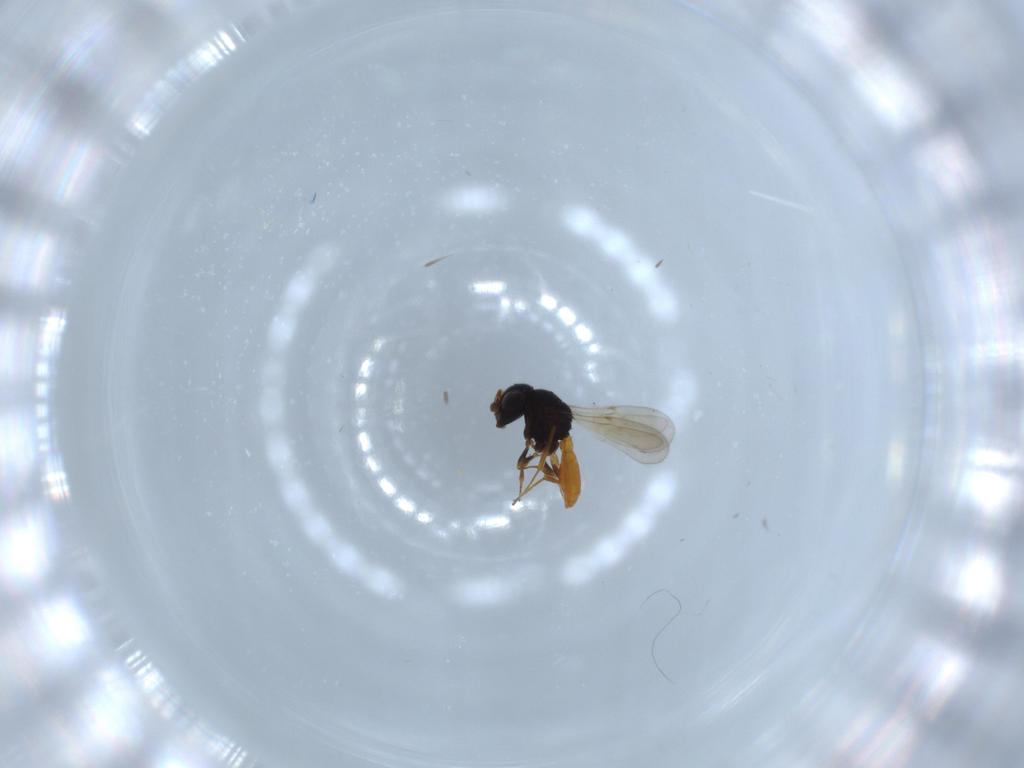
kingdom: Animalia
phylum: Arthropoda
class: Insecta
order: Hymenoptera
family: Scelionidae
